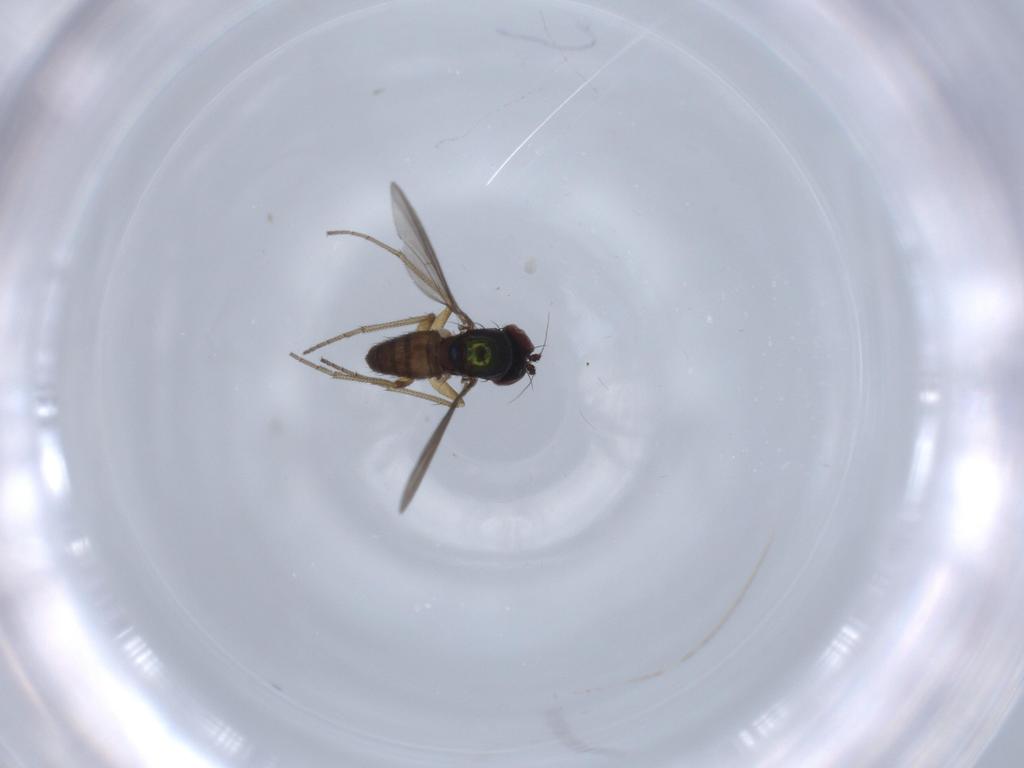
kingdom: Animalia
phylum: Arthropoda
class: Insecta
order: Diptera
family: Dolichopodidae
